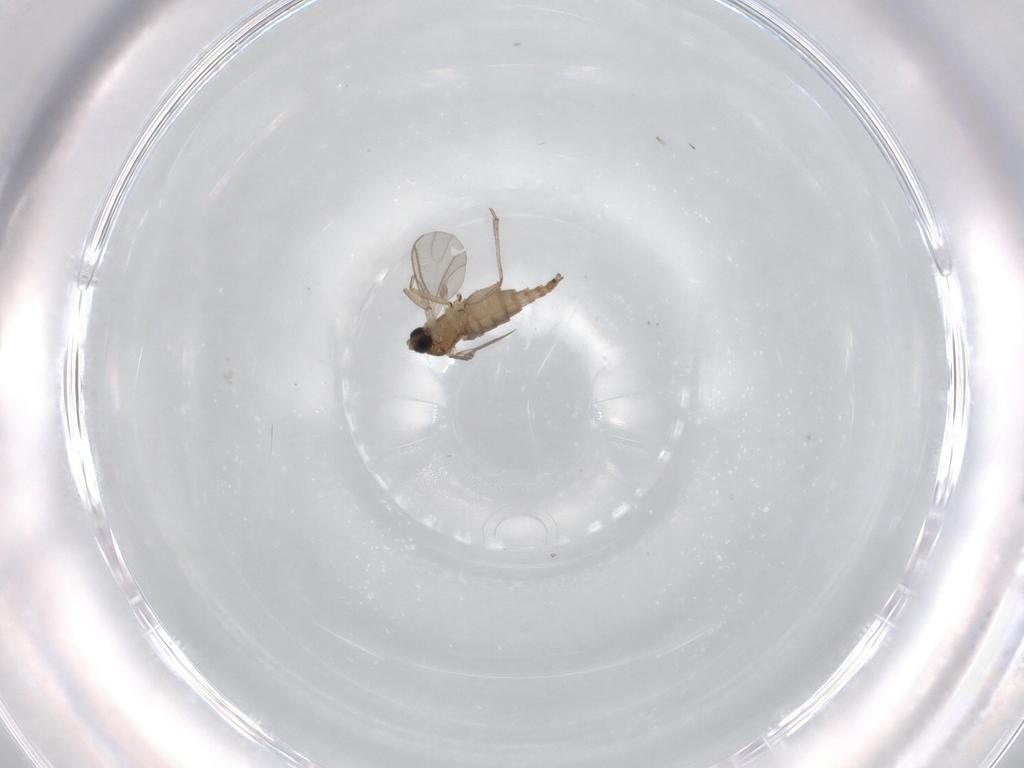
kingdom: Animalia
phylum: Arthropoda
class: Insecta
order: Diptera
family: Sciaridae
